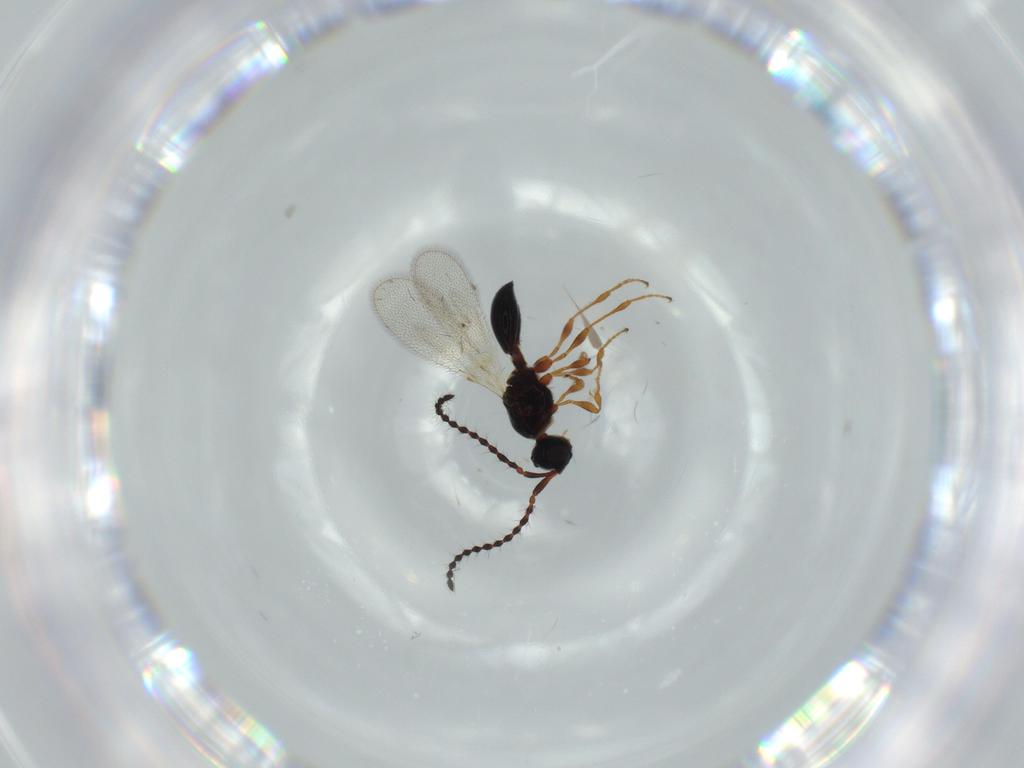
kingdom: Animalia
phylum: Arthropoda
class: Insecta
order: Hymenoptera
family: Diapriidae
